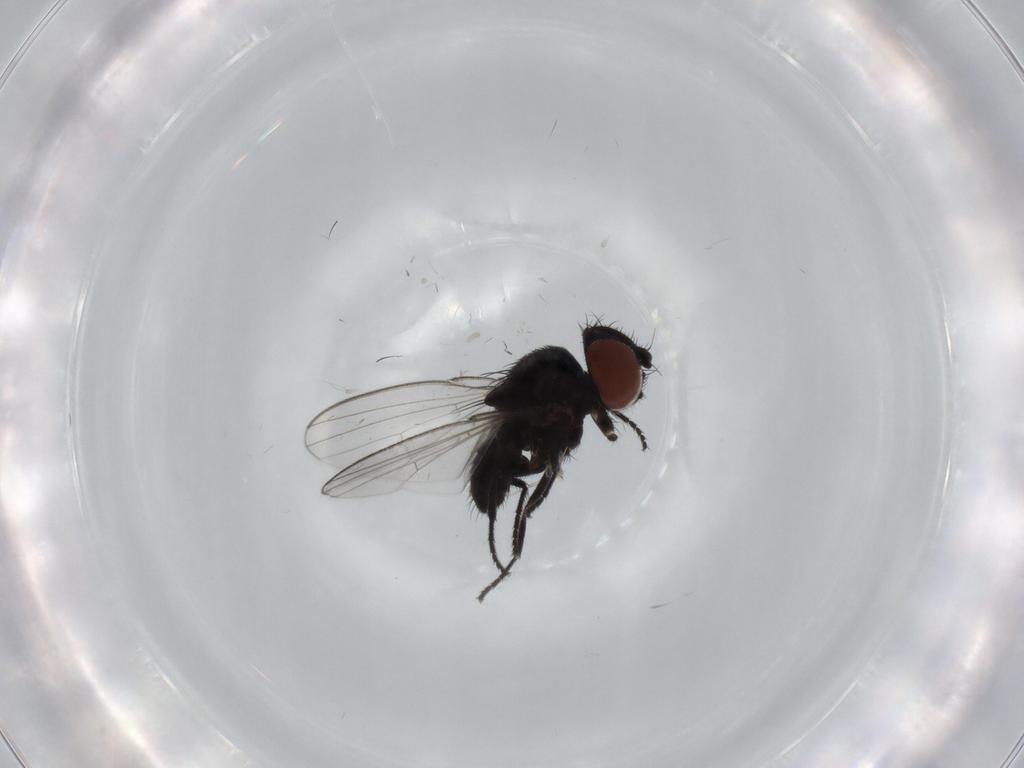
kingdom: Animalia
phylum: Arthropoda
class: Insecta
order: Diptera
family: Milichiidae
